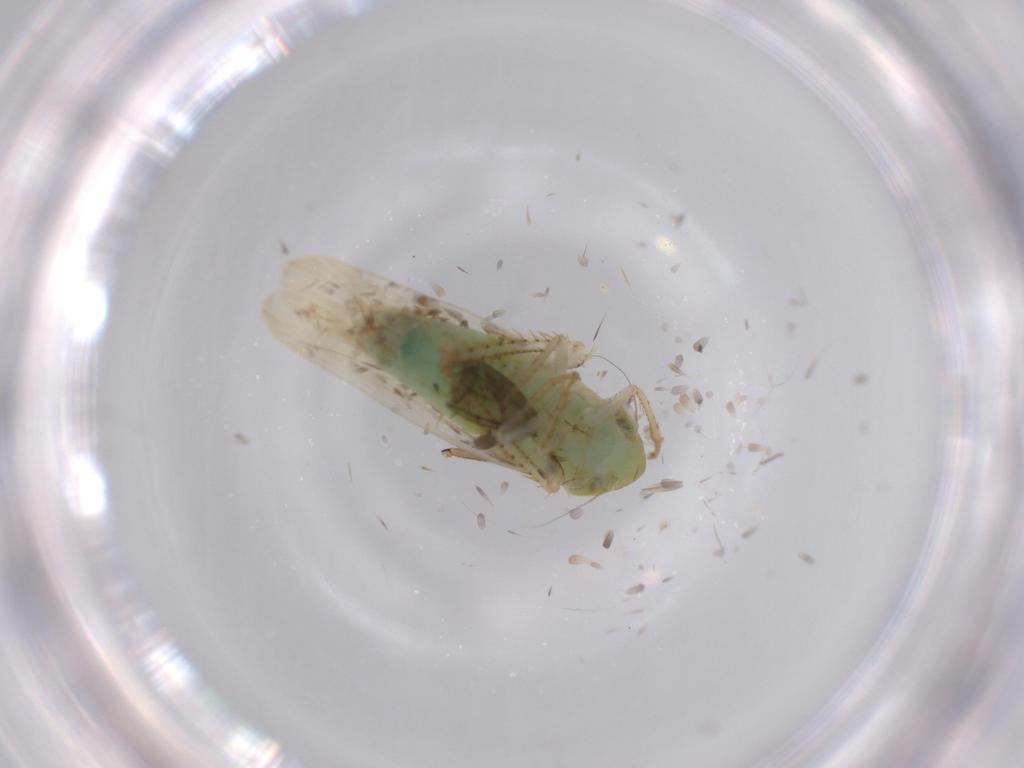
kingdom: Animalia
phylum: Arthropoda
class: Insecta
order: Hemiptera
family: Cicadellidae
